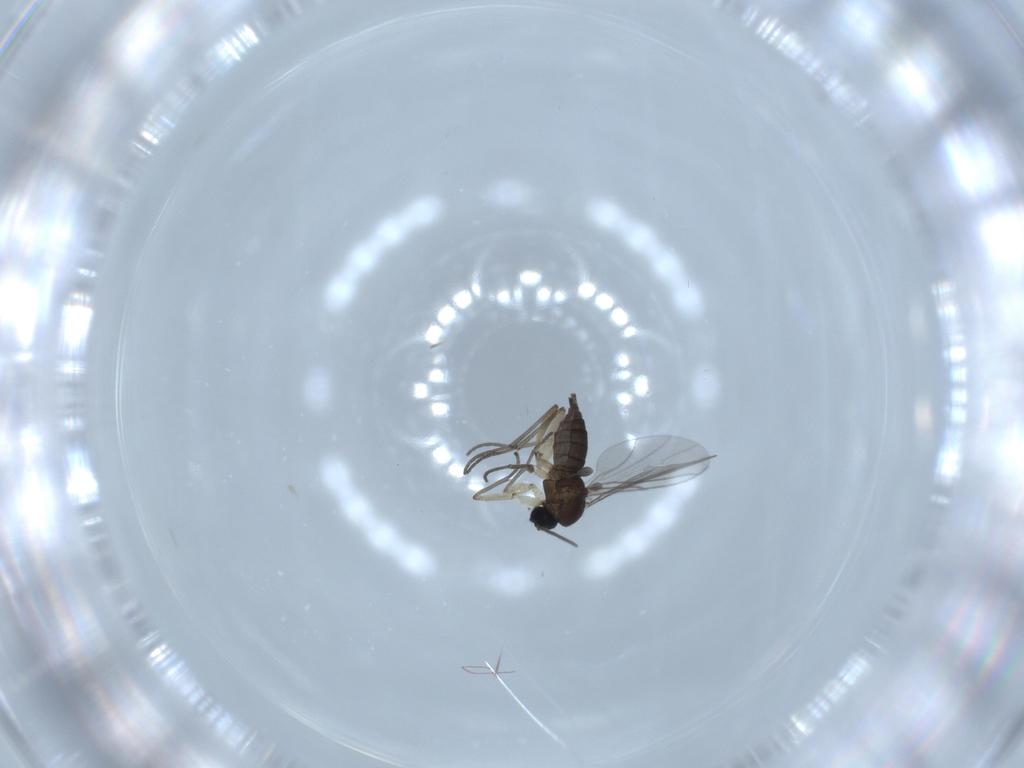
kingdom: Animalia
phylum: Arthropoda
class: Insecta
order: Diptera
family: Sciaridae
